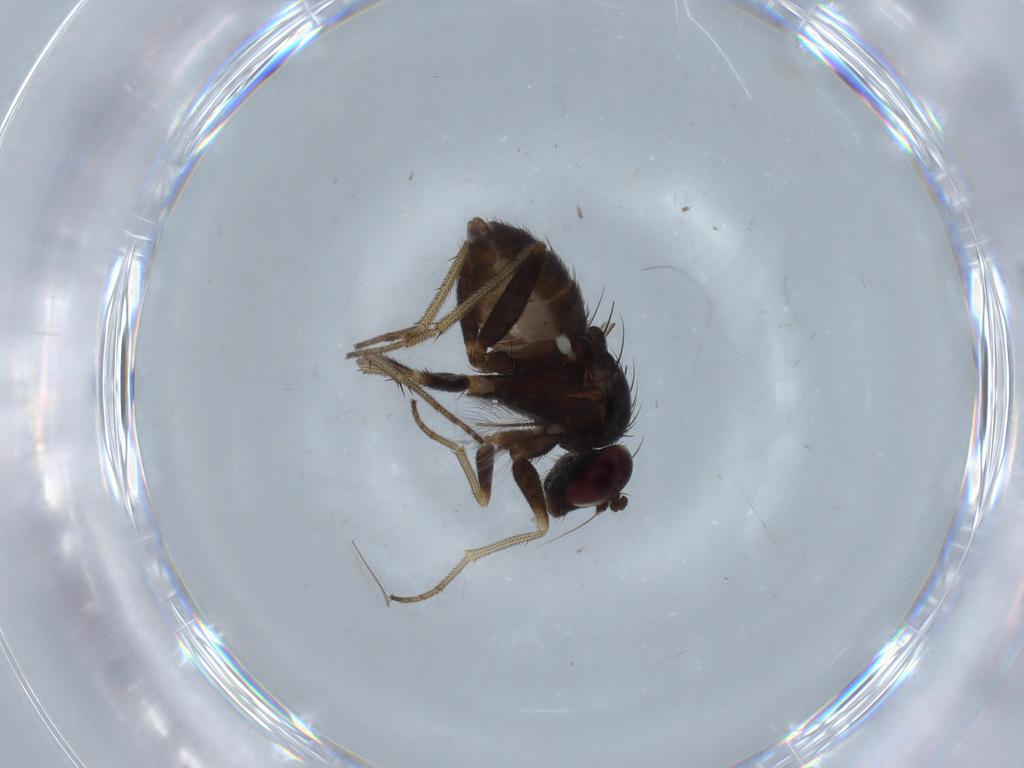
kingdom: Animalia
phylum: Arthropoda
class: Insecta
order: Diptera
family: Dolichopodidae
